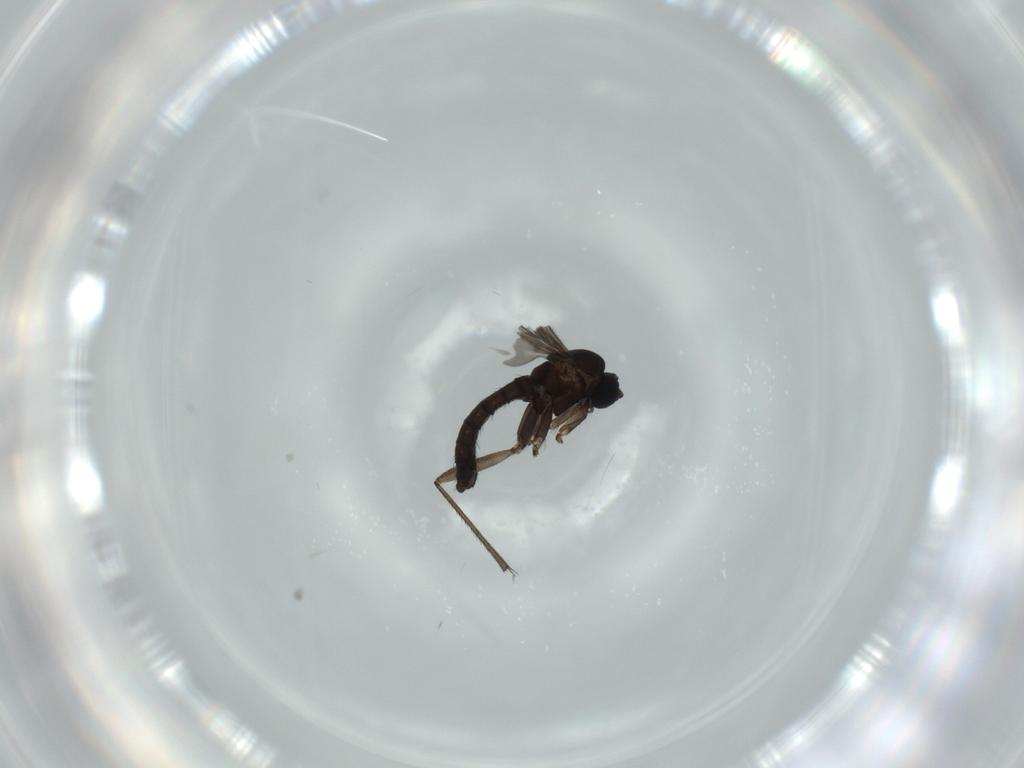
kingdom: Animalia
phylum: Arthropoda
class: Insecta
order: Diptera
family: Sciaridae
